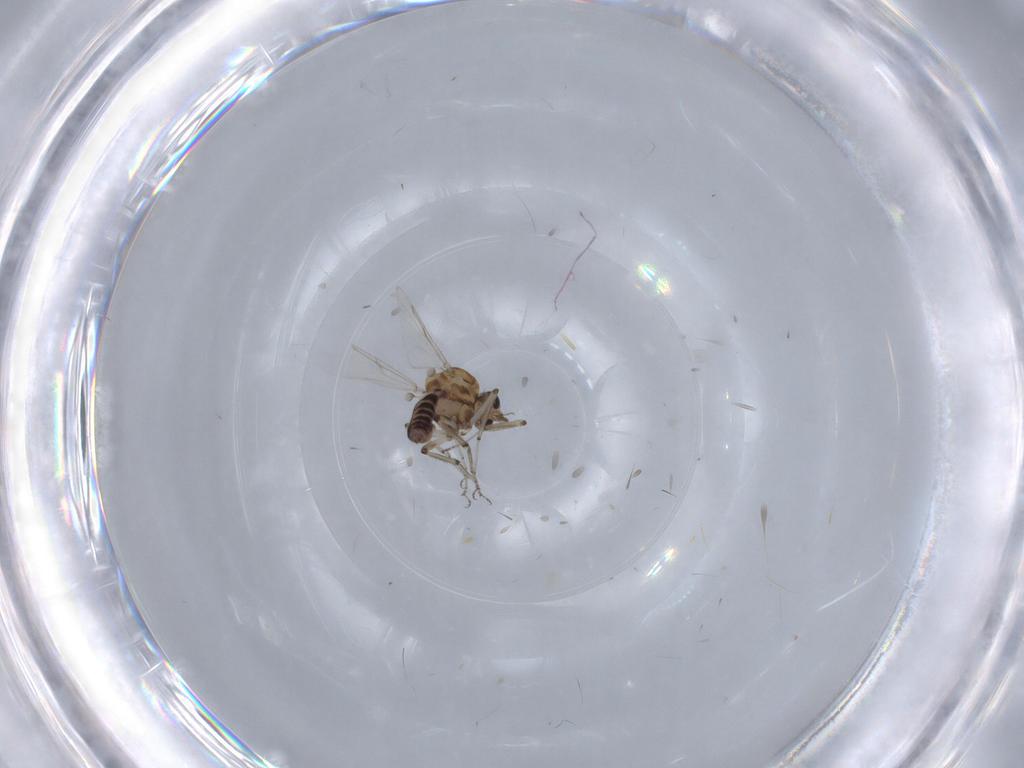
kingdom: Animalia
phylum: Arthropoda
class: Insecta
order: Diptera
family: Ceratopogonidae
